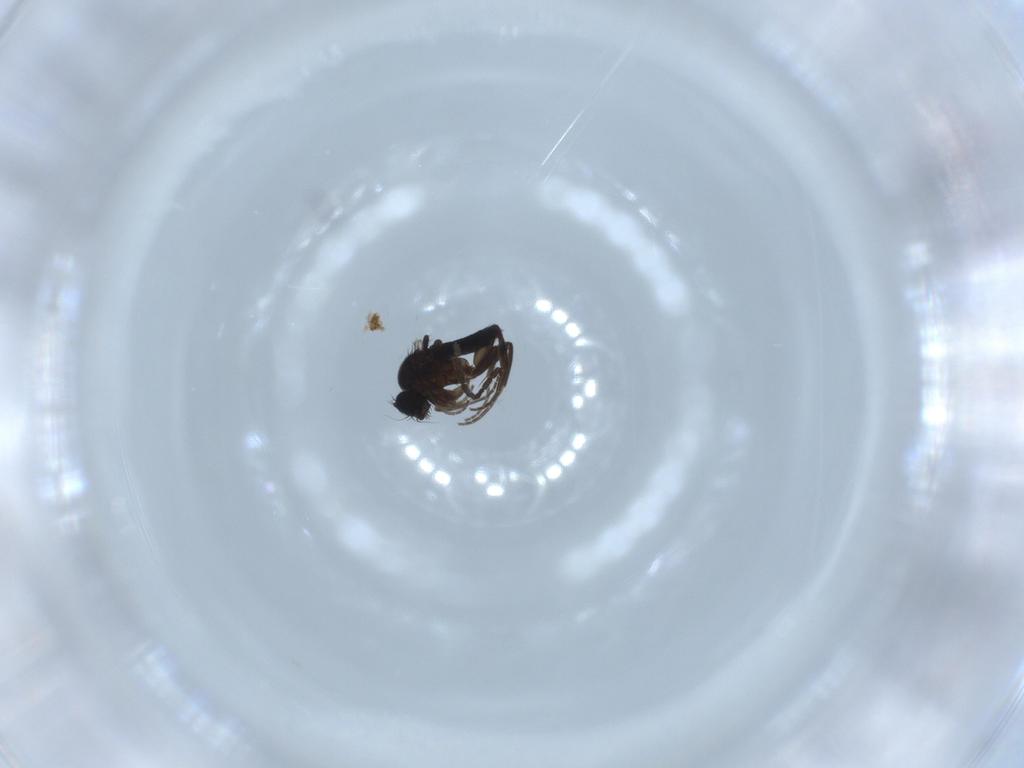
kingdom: Animalia
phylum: Arthropoda
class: Insecta
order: Diptera
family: Phoridae
